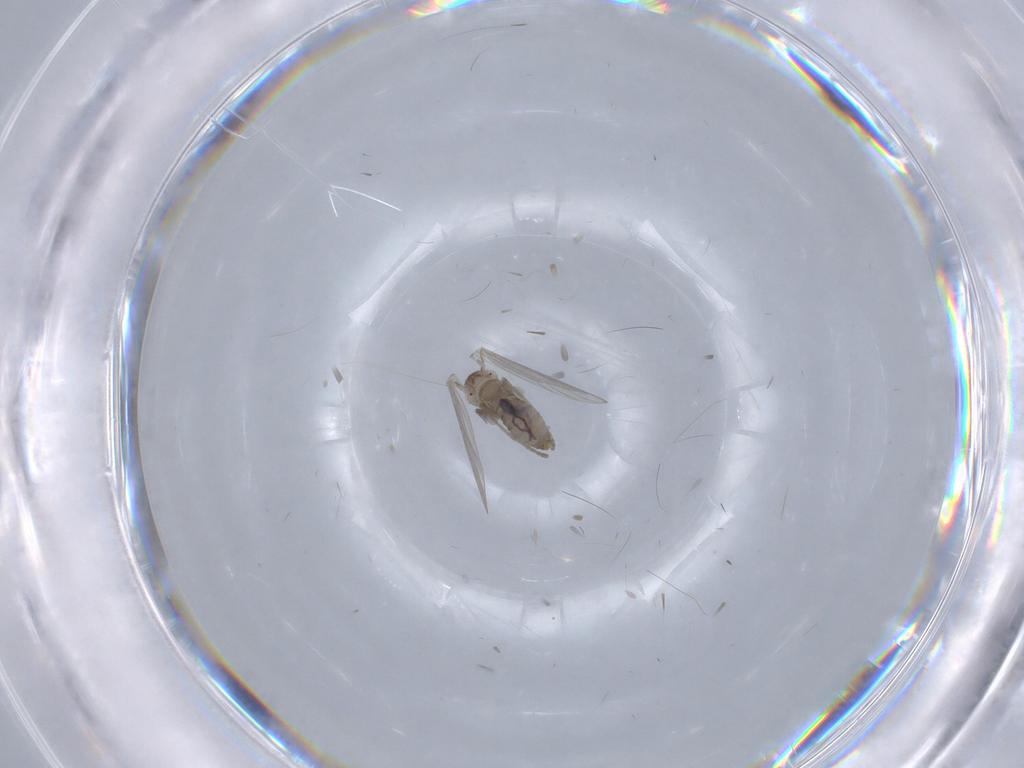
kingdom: Animalia
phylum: Arthropoda
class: Insecta
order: Diptera
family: Psychodidae
